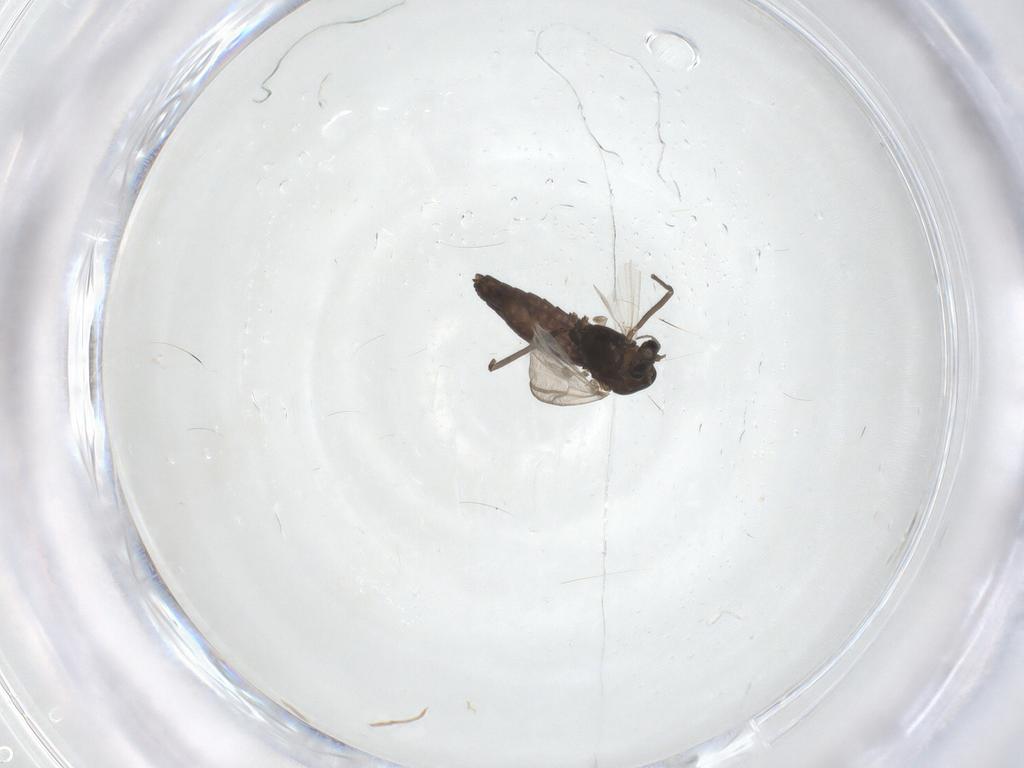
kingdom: Animalia
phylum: Arthropoda
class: Insecta
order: Diptera
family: Chironomidae
